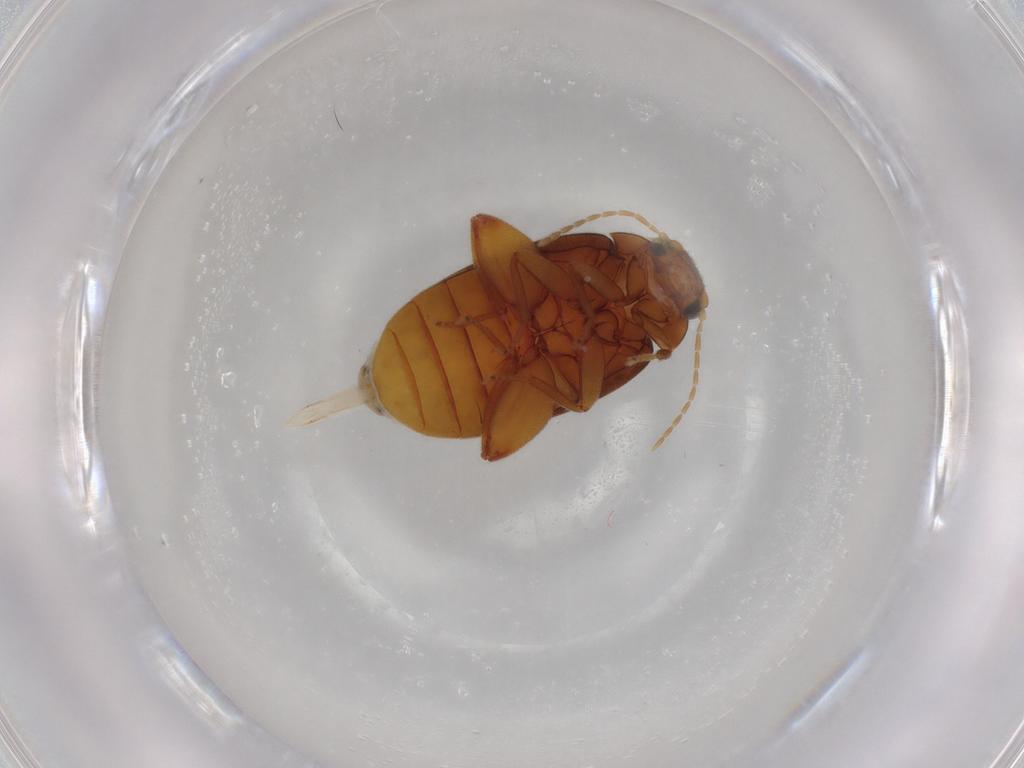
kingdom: Animalia
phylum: Arthropoda
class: Insecta
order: Coleoptera
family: Scirtidae
